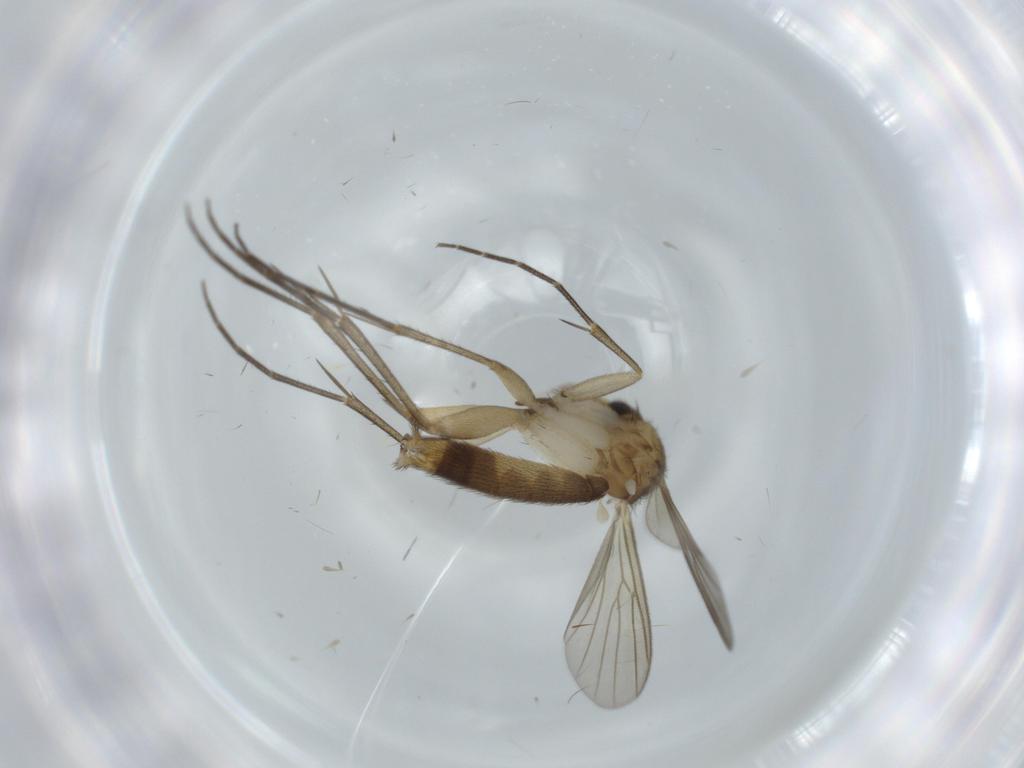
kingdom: Animalia
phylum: Arthropoda
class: Insecta
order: Diptera
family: Mycetophilidae
